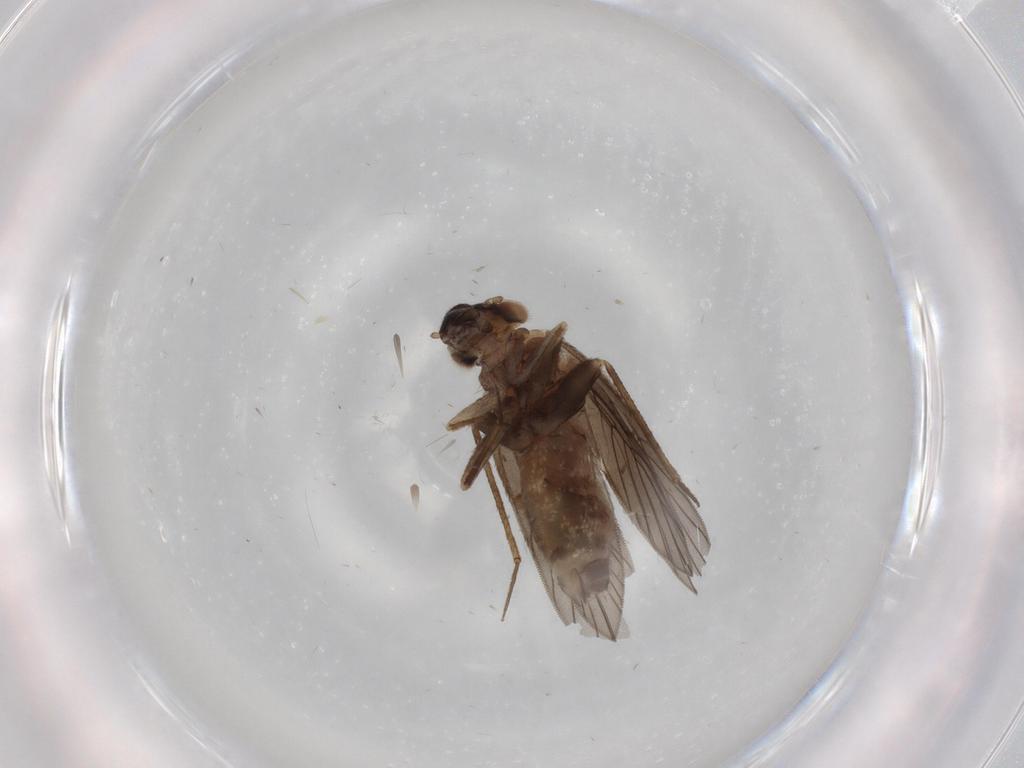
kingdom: Animalia
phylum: Arthropoda
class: Insecta
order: Psocodea
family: Lepidopsocidae
